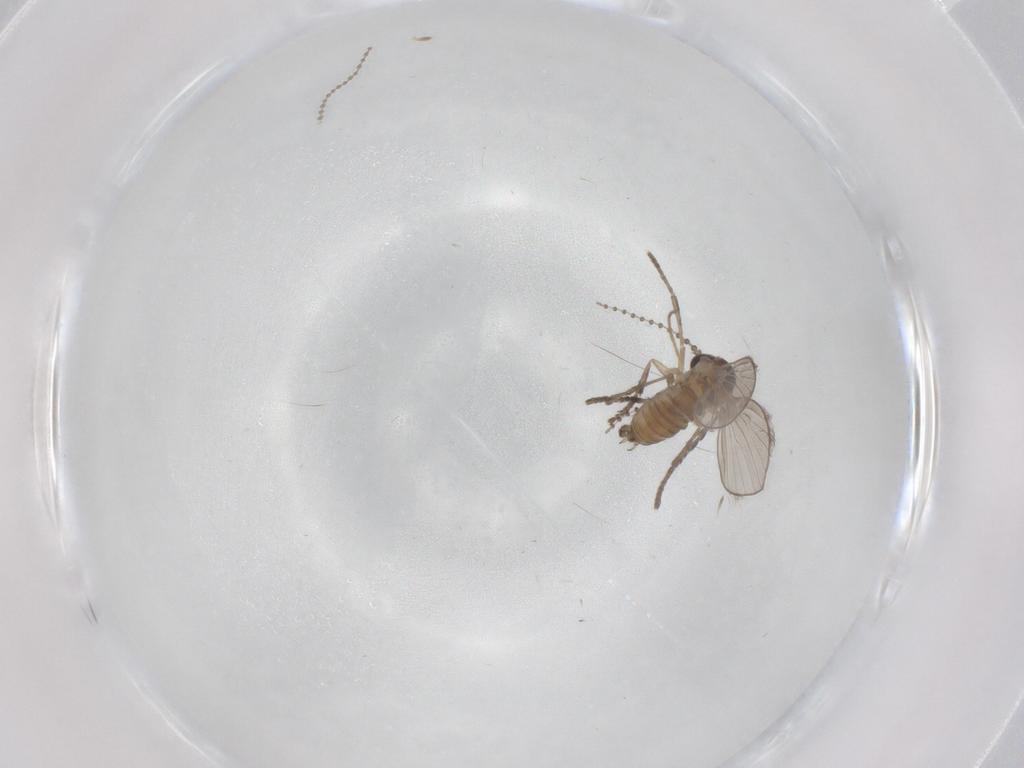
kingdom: Animalia
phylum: Arthropoda
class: Insecta
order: Diptera
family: Psychodidae
